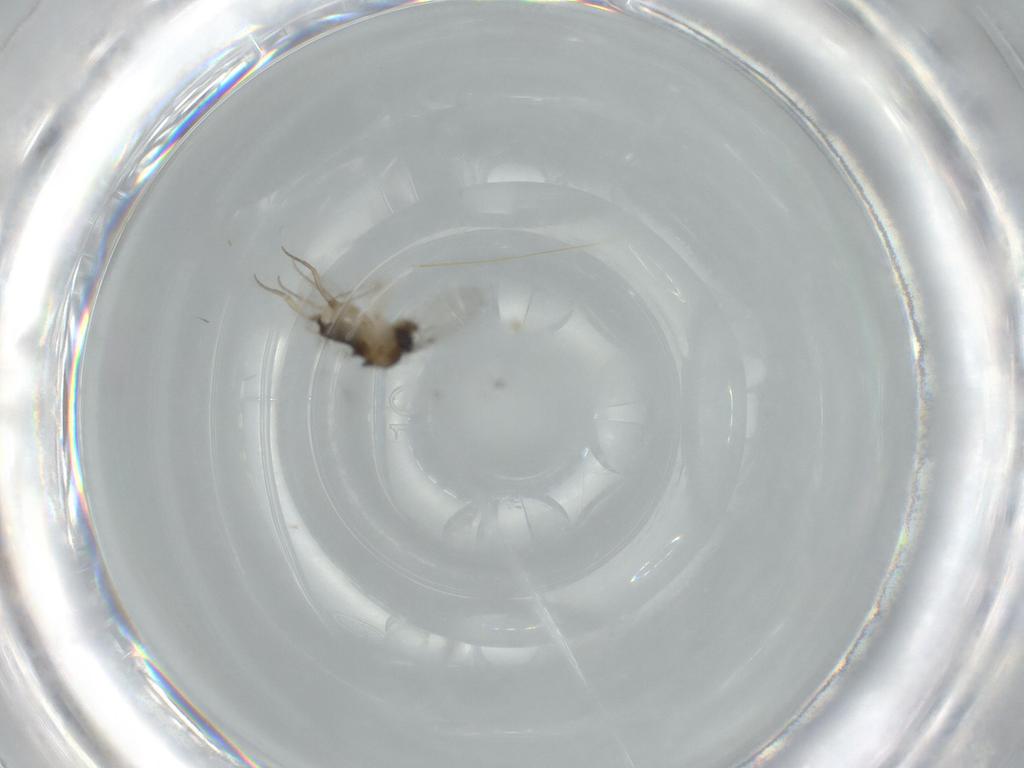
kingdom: Animalia
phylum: Arthropoda
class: Insecta
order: Diptera
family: Phoridae
